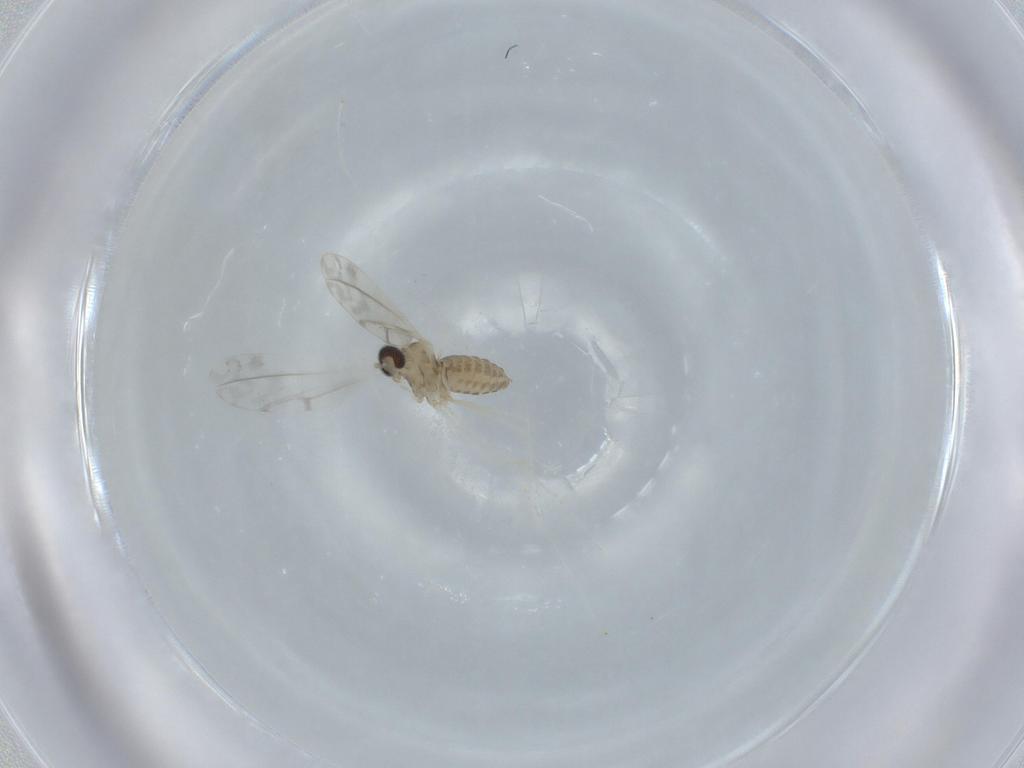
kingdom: Animalia
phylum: Arthropoda
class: Insecta
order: Diptera
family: Cecidomyiidae
